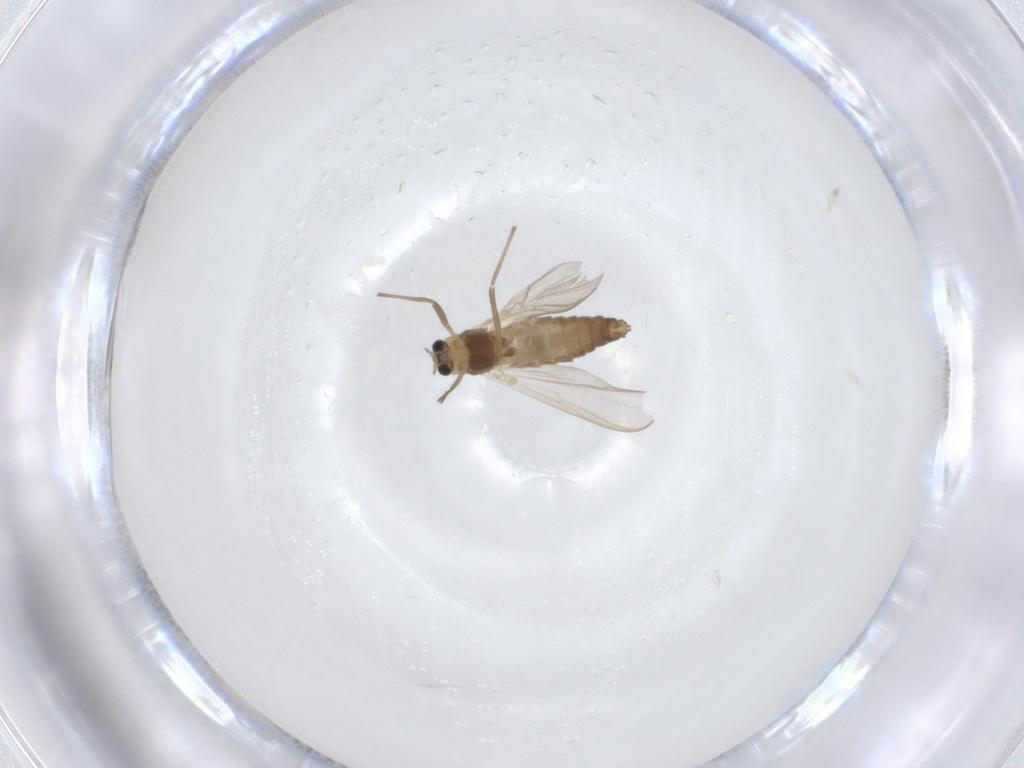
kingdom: Animalia
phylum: Arthropoda
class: Insecta
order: Diptera
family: Chironomidae
